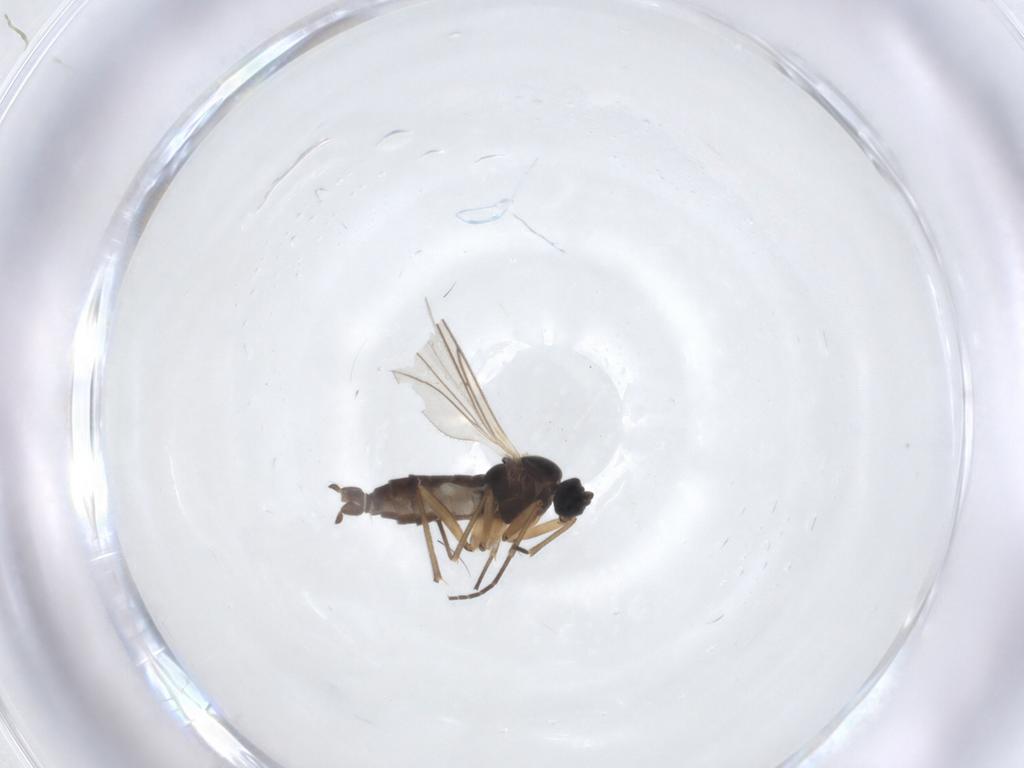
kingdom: Animalia
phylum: Arthropoda
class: Insecta
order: Diptera
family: Sciaridae
